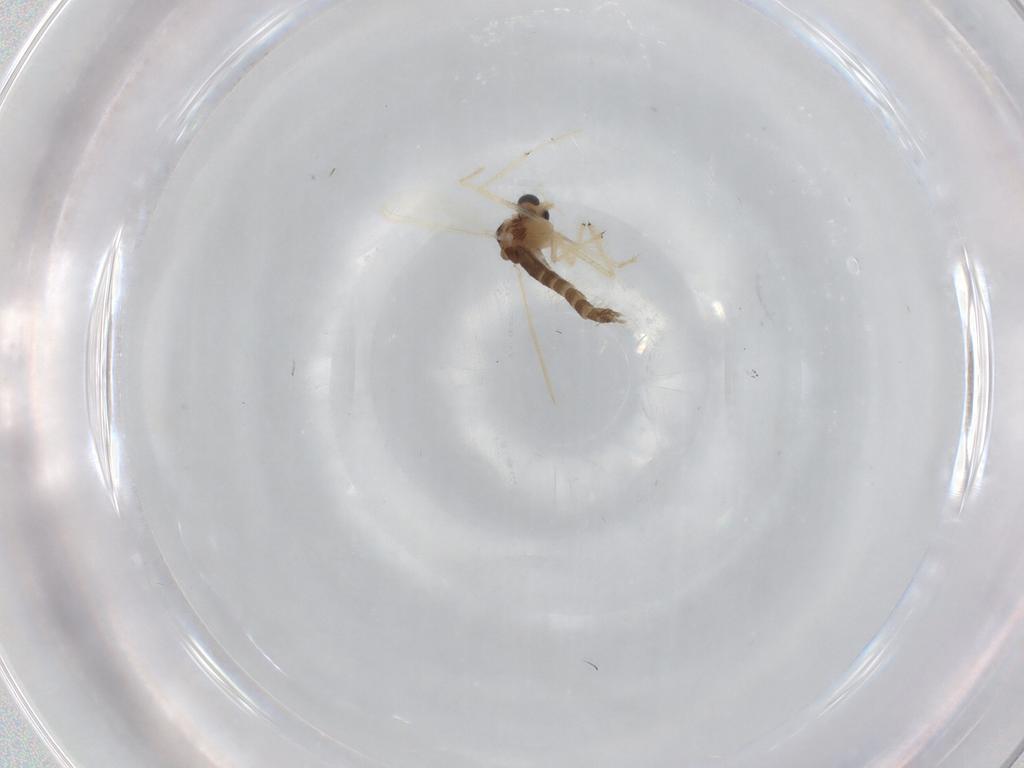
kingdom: Animalia
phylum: Arthropoda
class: Insecta
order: Diptera
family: Chironomidae
